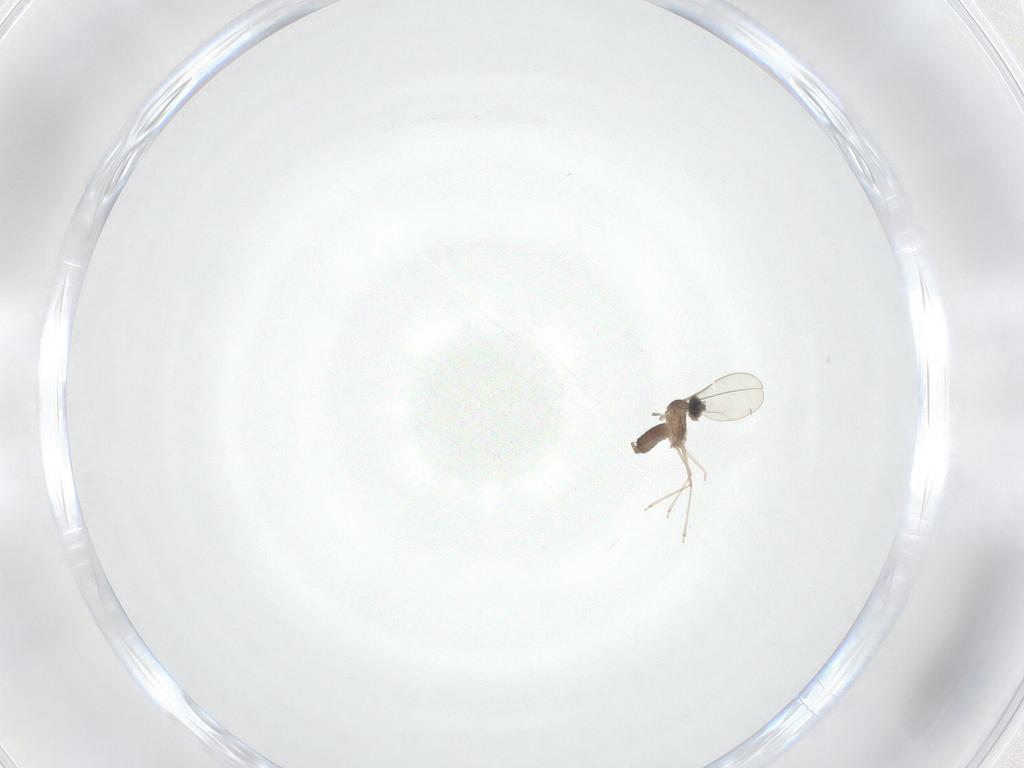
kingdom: Animalia
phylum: Arthropoda
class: Insecta
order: Diptera
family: Cecidomyiidae
